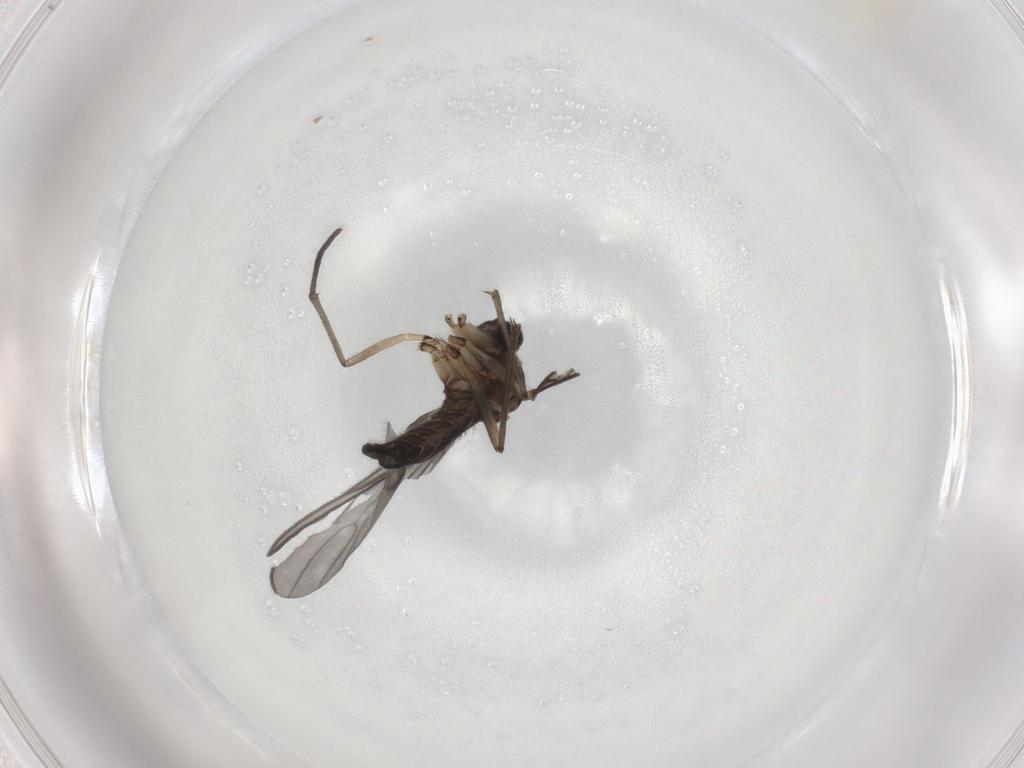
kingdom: Animalia
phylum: Arthropoda
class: Insecta
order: Diptera
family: Sciaridae
